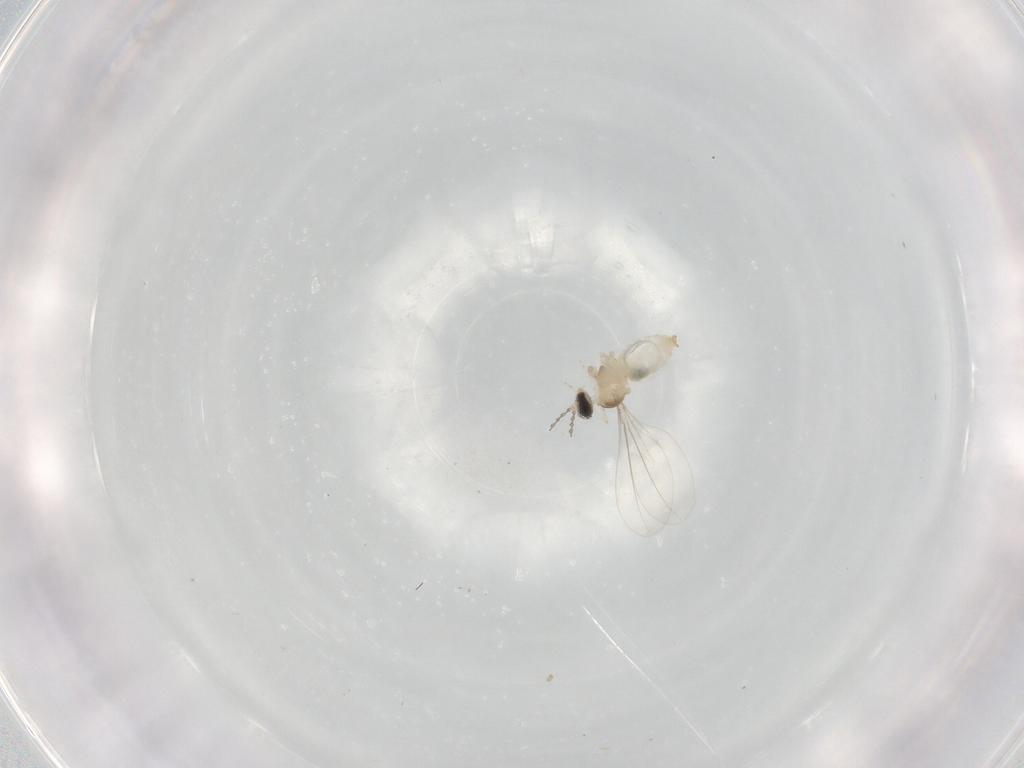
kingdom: Animalia
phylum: Arthropoda
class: Insecta
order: Diptera
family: Cecidomyiidae
